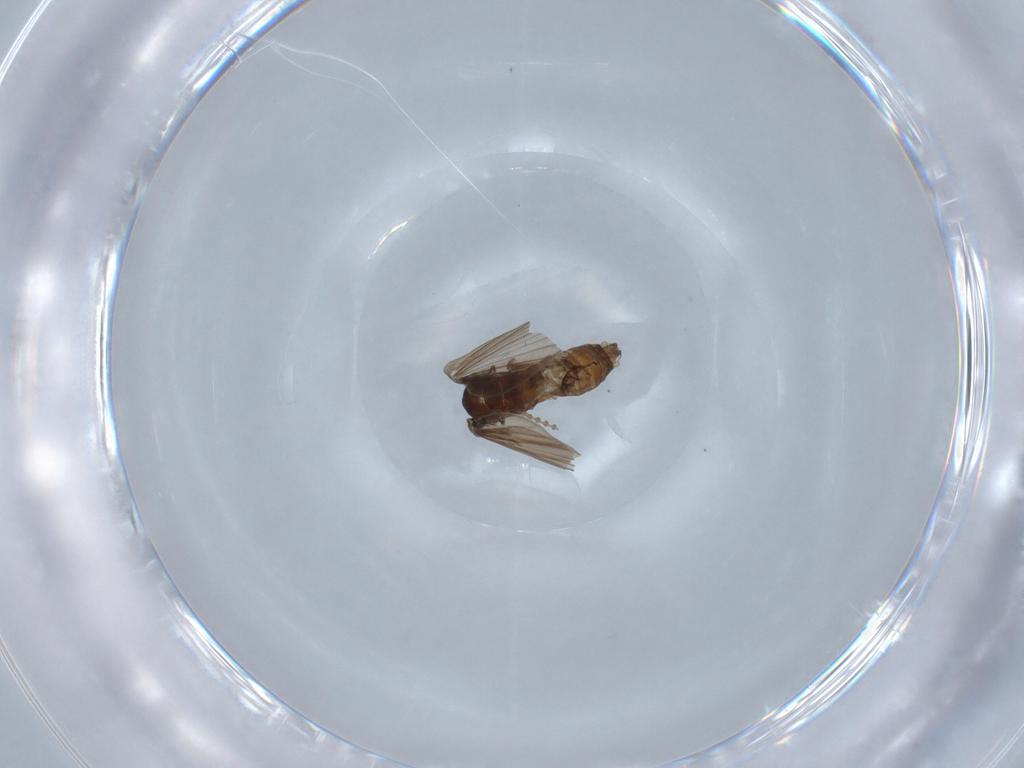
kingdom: Animalia
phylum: Arthropoda
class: Insecta
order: Diptera
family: Psychodidae
